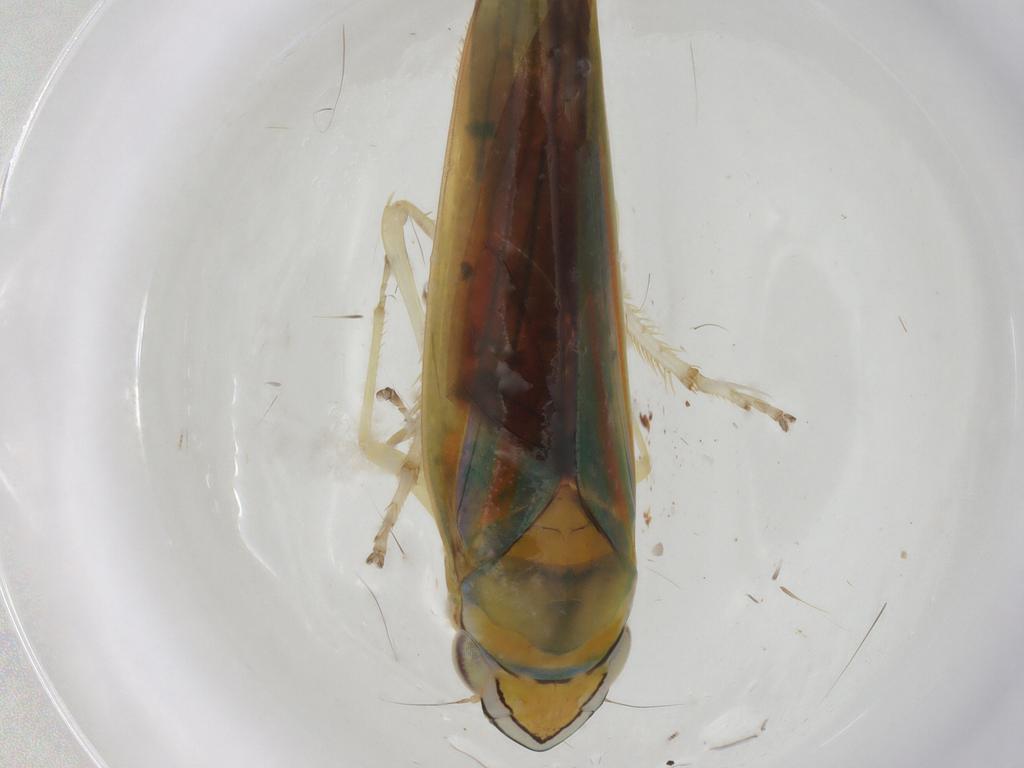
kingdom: Animalia
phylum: Arthropoda
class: Insecta
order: Hemiptera
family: Cicadellidae
